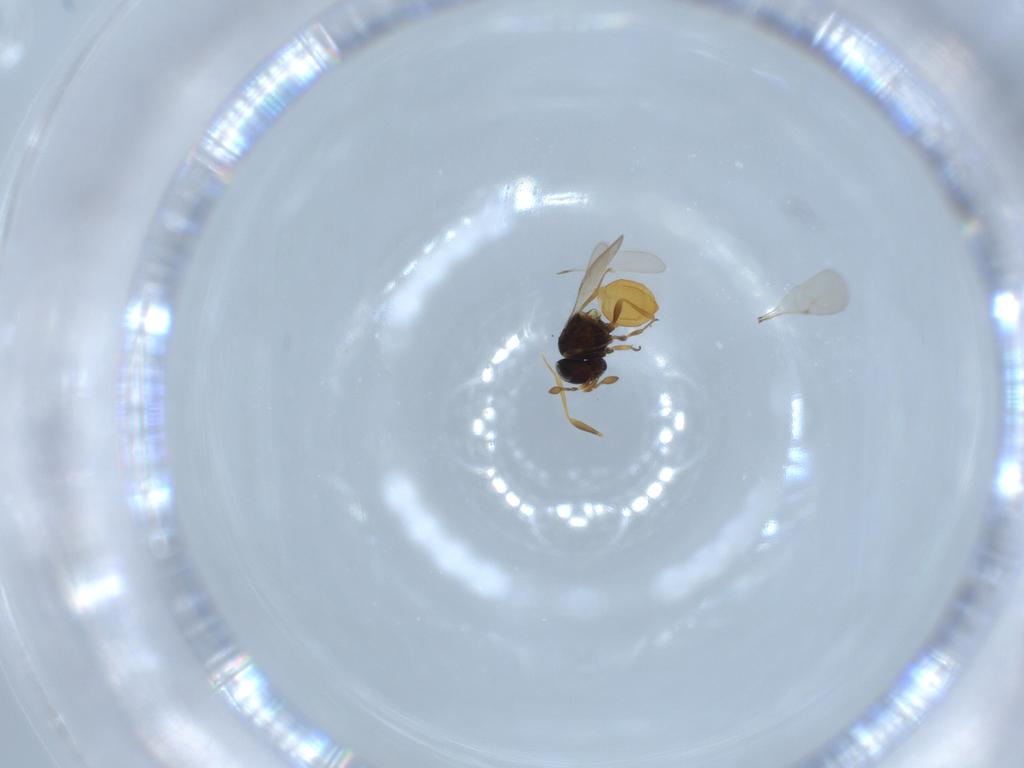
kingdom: Animalia
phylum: Arthropoda
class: Insecta
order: Hymenoptera
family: Scelionidae
